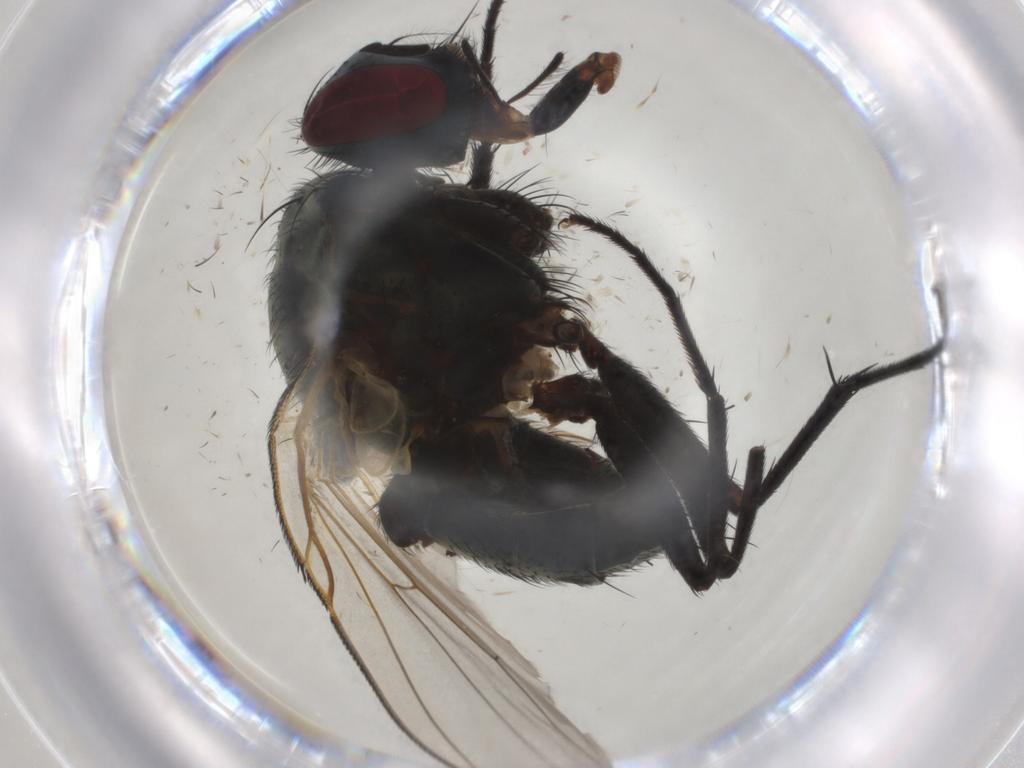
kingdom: Animalia
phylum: Arthropoda
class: Insecta
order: Diptera
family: Muscidae
